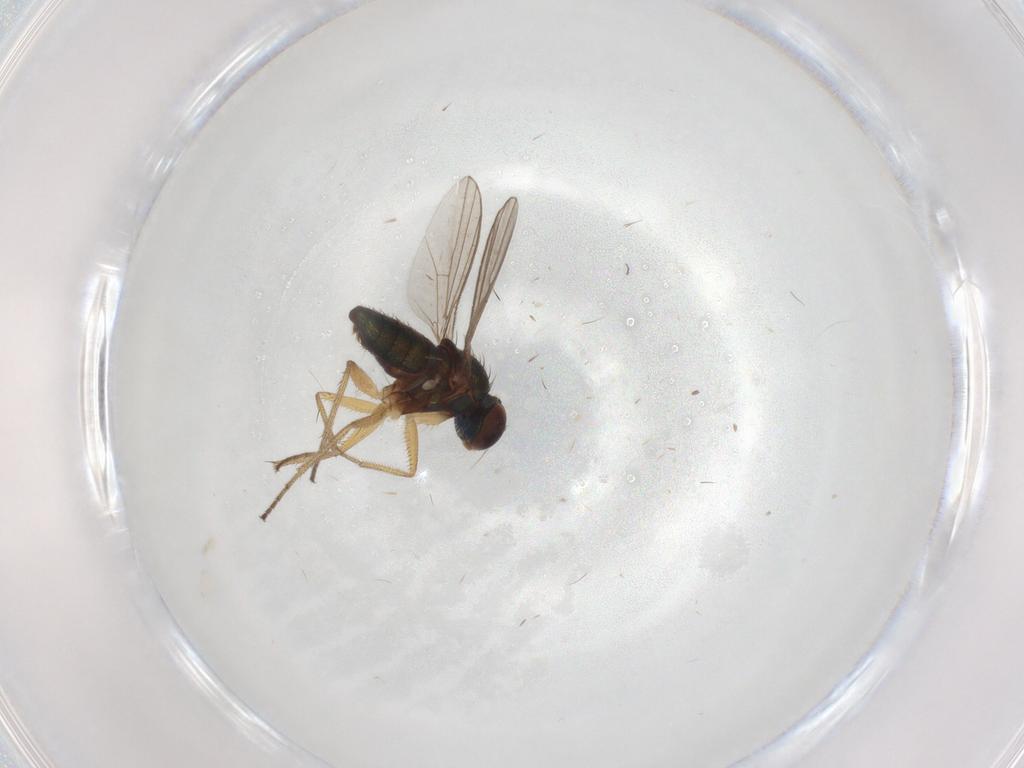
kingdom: Animalia
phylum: Arthropoda
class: Insecta
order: Diptera
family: Dolichopodidae
